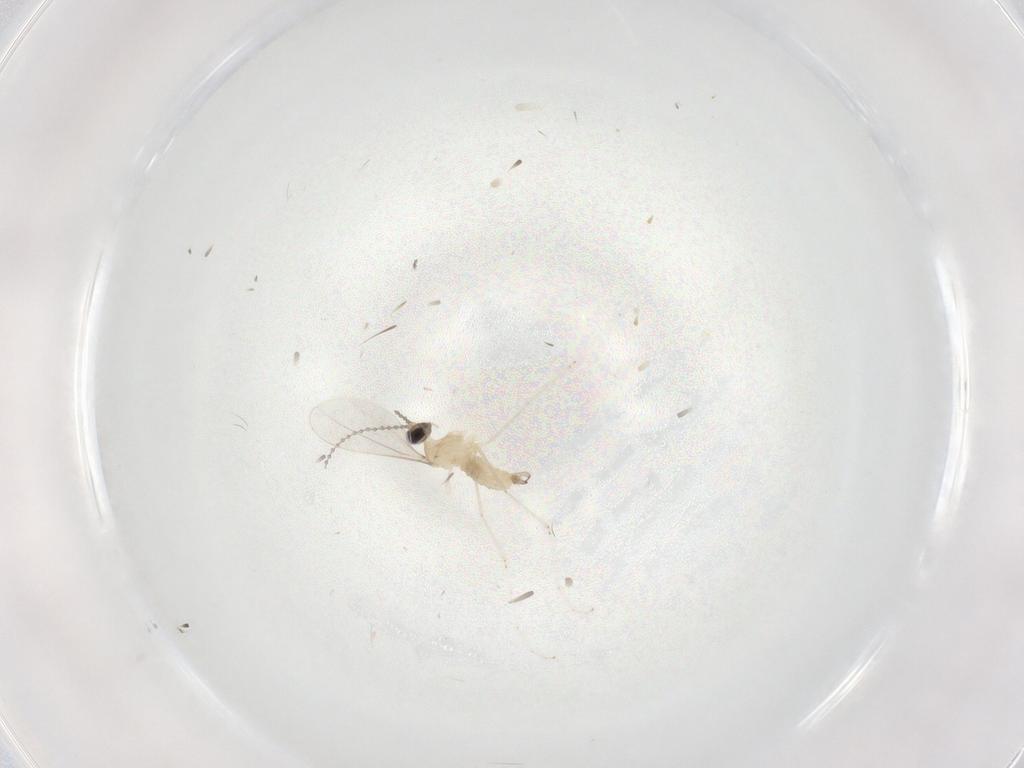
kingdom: Animalia
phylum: Arthropoda
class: Insecta
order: Diptera
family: Cecidomyiidae
